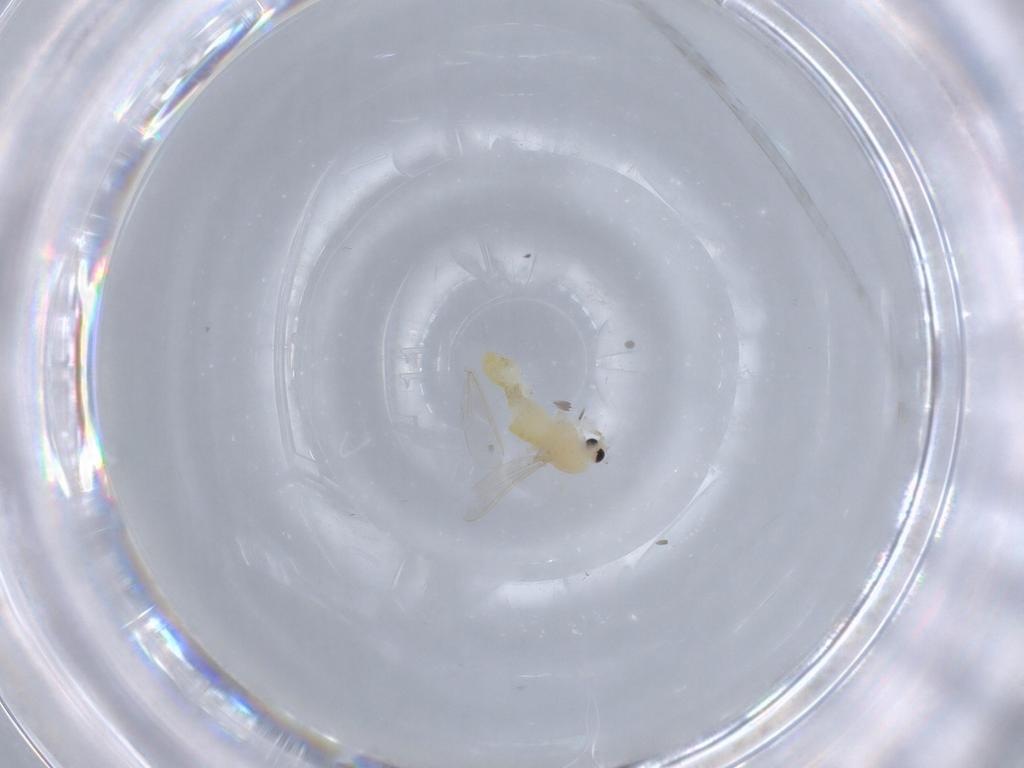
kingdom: Animalia
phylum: Arthropoda
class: Insecta
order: Diptera
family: Chironomidae
